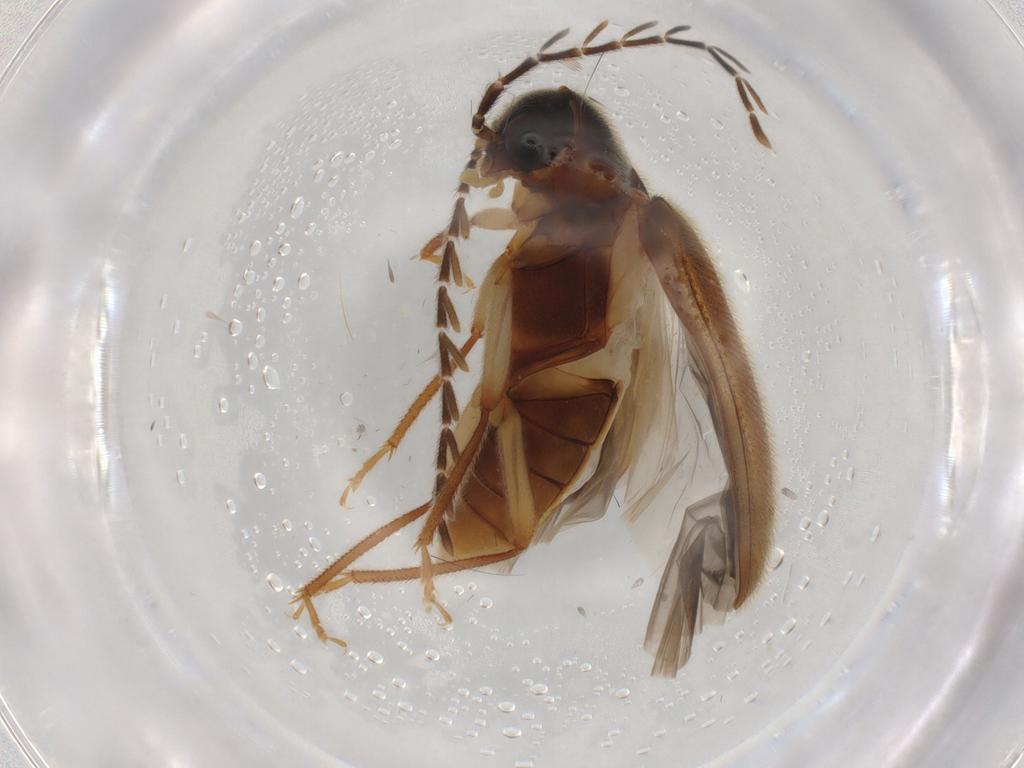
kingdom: Animalia
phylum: Arthropoda
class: Insecta
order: Coleoptera
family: Ptilodactylidae
